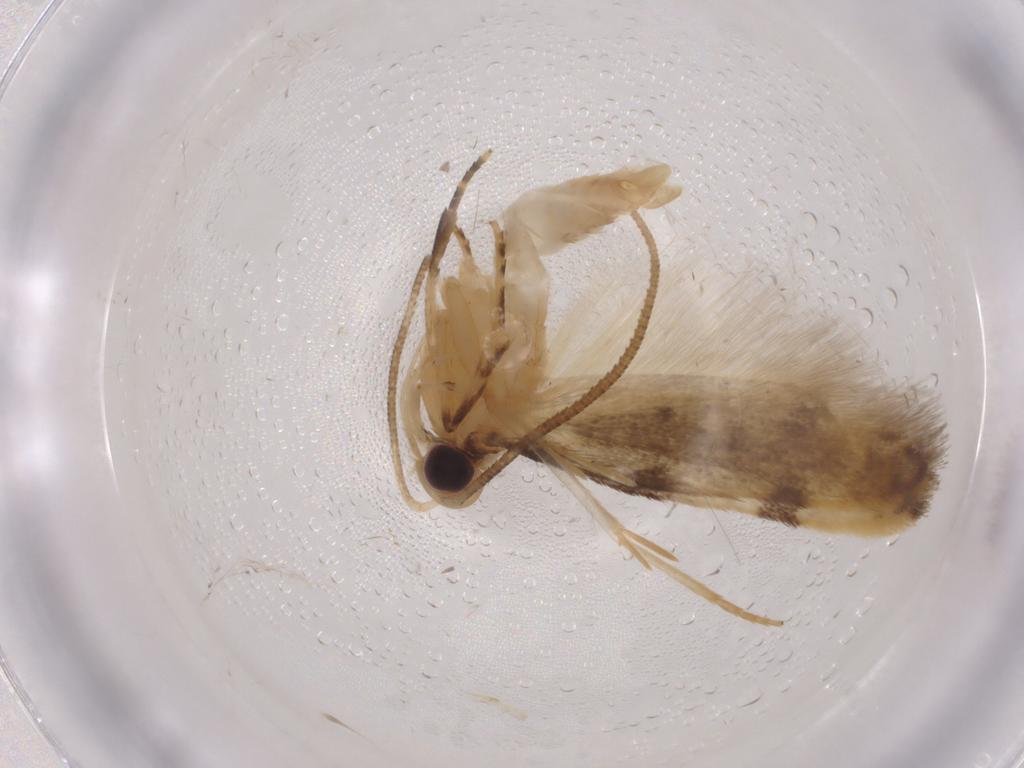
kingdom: Animalia
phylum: Arthropoda
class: Insecta
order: Lepidoptera
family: Autostichidae
